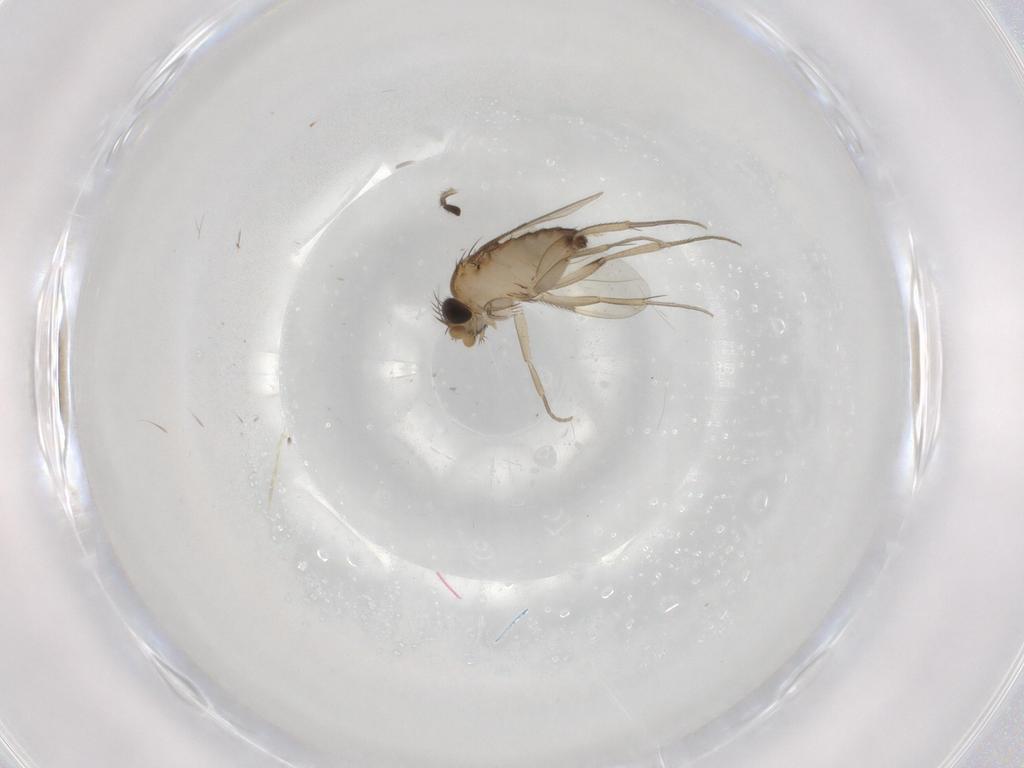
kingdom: Animalia
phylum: Arthropoda
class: Insecta
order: Diptera
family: Phoridae
